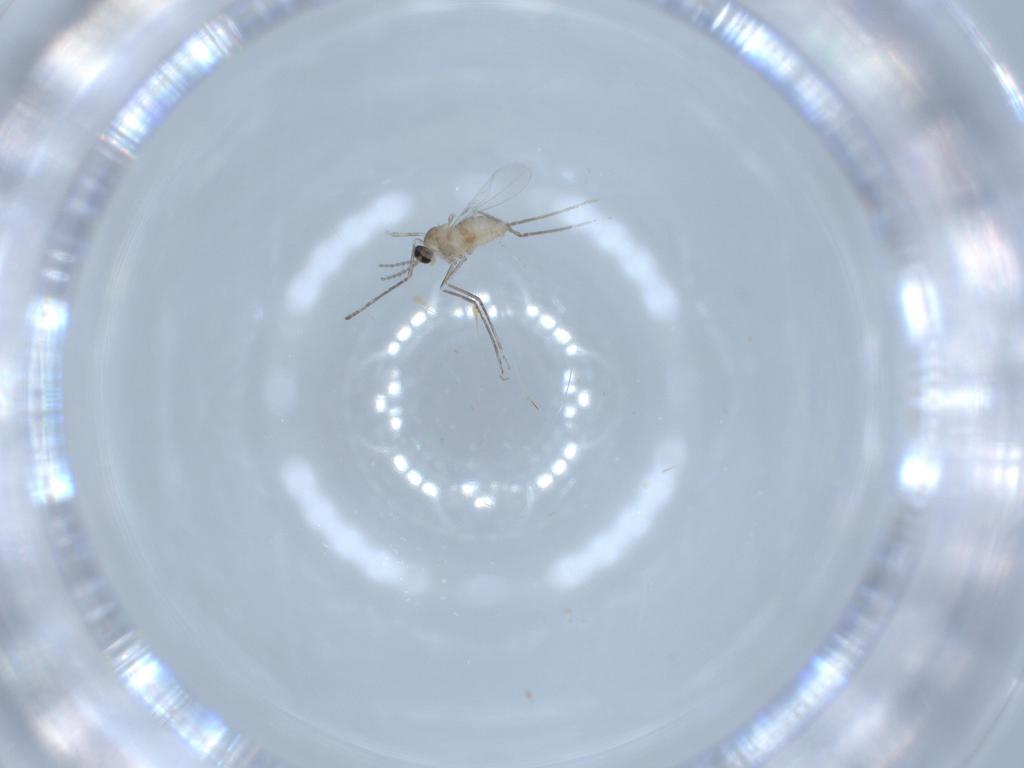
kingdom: Animalia
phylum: Arthropoda
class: Insecta
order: Diptera
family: Cecidomyiidae
